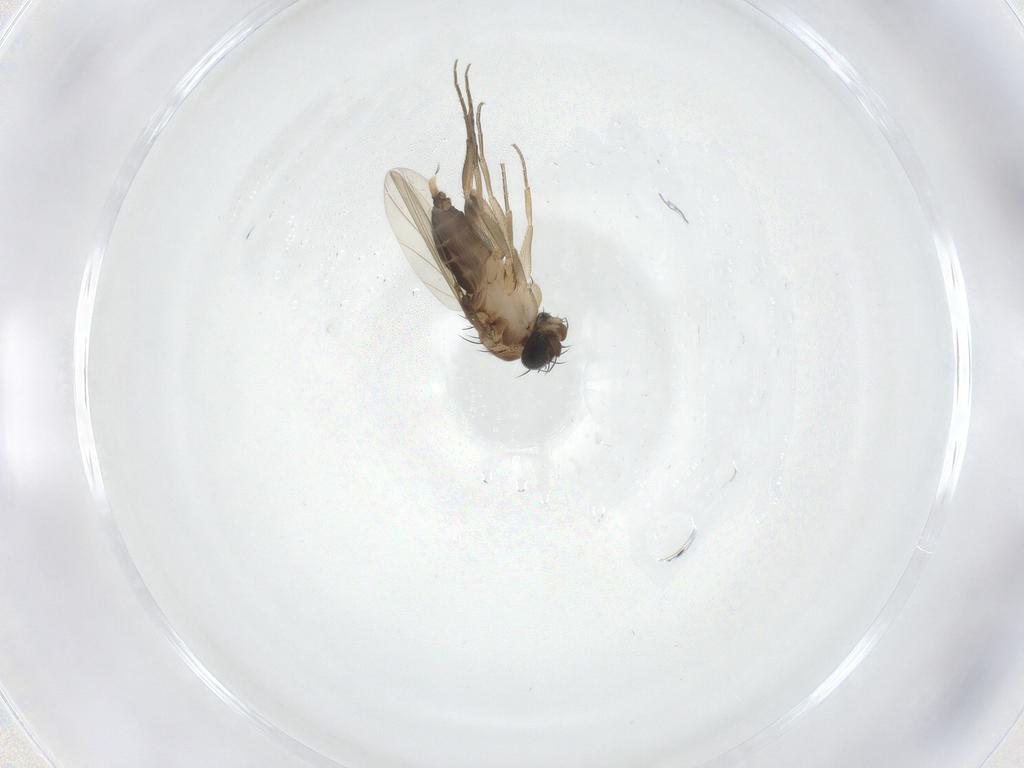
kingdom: Animalia
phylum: Arthropoda
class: Insecta
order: Diptera
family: Phoridae
